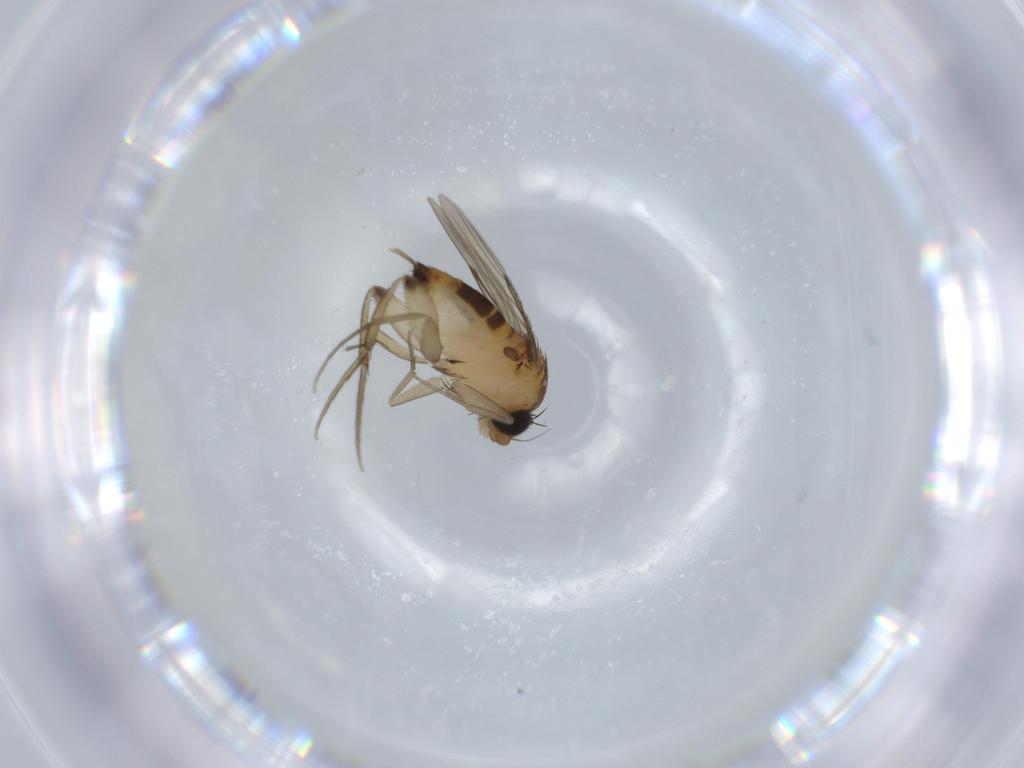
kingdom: Animalia
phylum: Arthropoda
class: Insecta
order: Diptera
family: Phoridae
